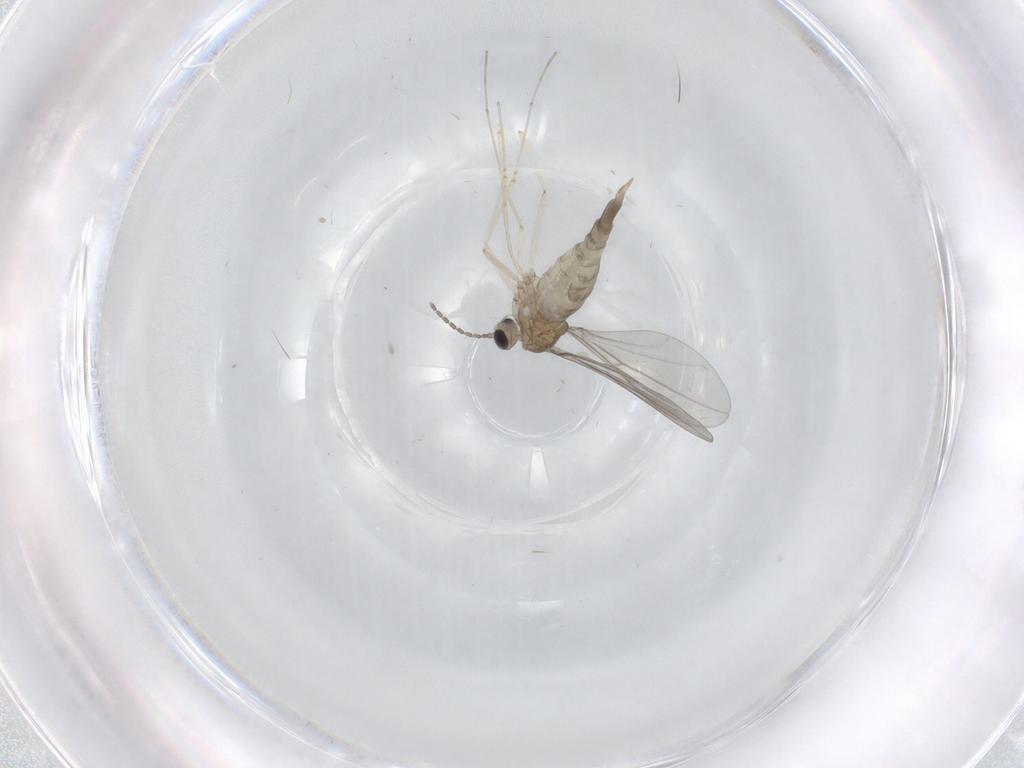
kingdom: Animalia
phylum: Arthropoda
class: Insecta
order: Diptera
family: Cecidomyiidae
